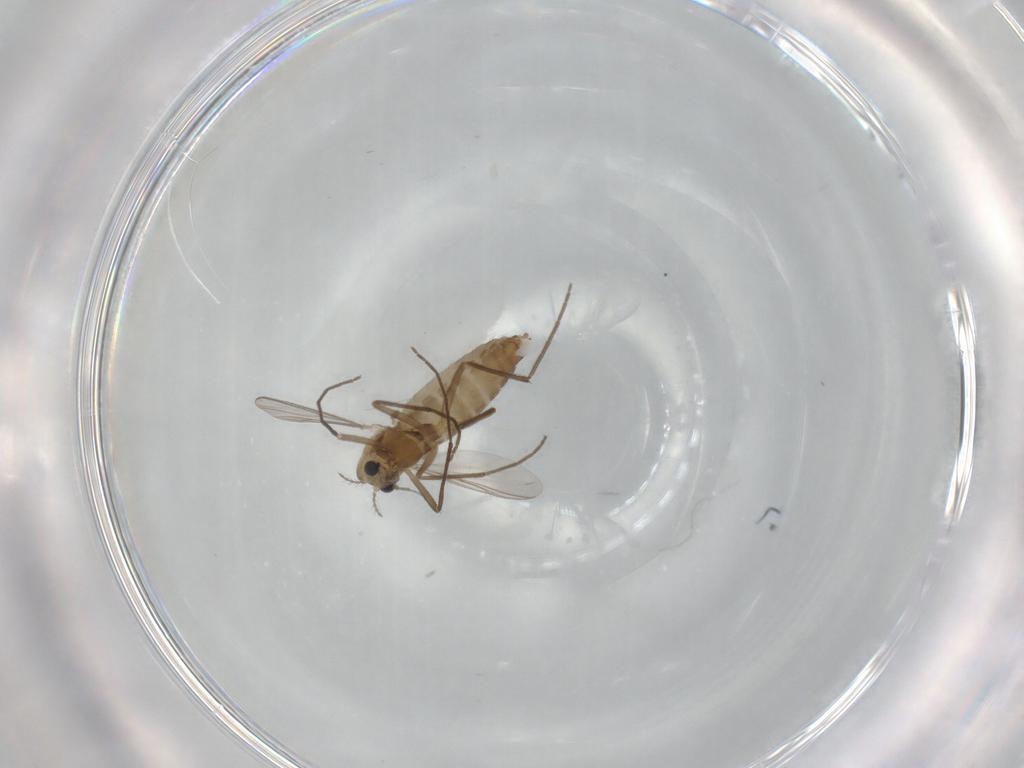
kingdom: Animalia
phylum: Arthropoda
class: Insecta
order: Diptera
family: Chironomidae
